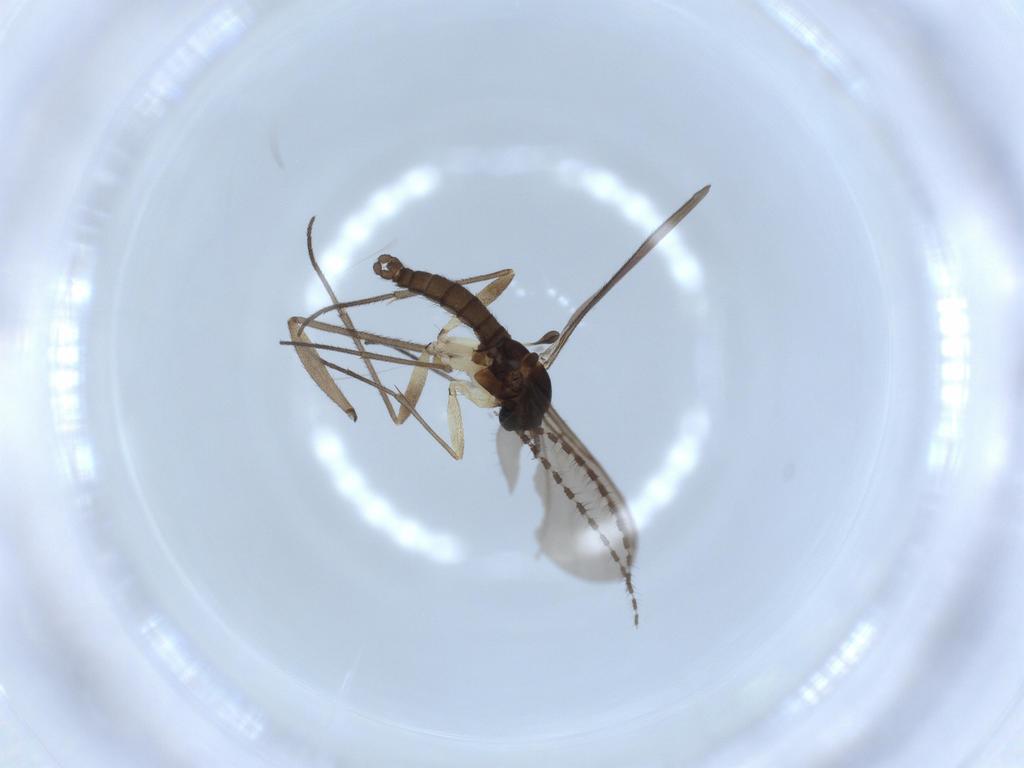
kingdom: Animalia
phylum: Arthropoda
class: Insecta
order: Diptera
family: Sciaridae
